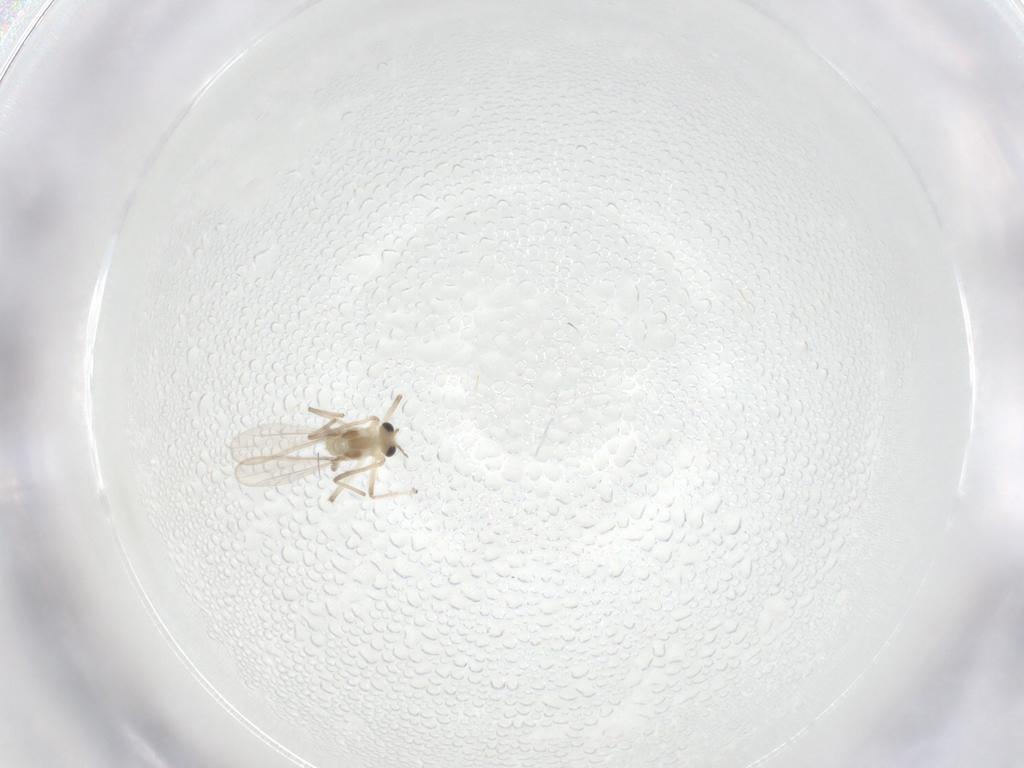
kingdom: Animalia
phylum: Arthropoda
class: Insecta
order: Diptera
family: Chironomidae
